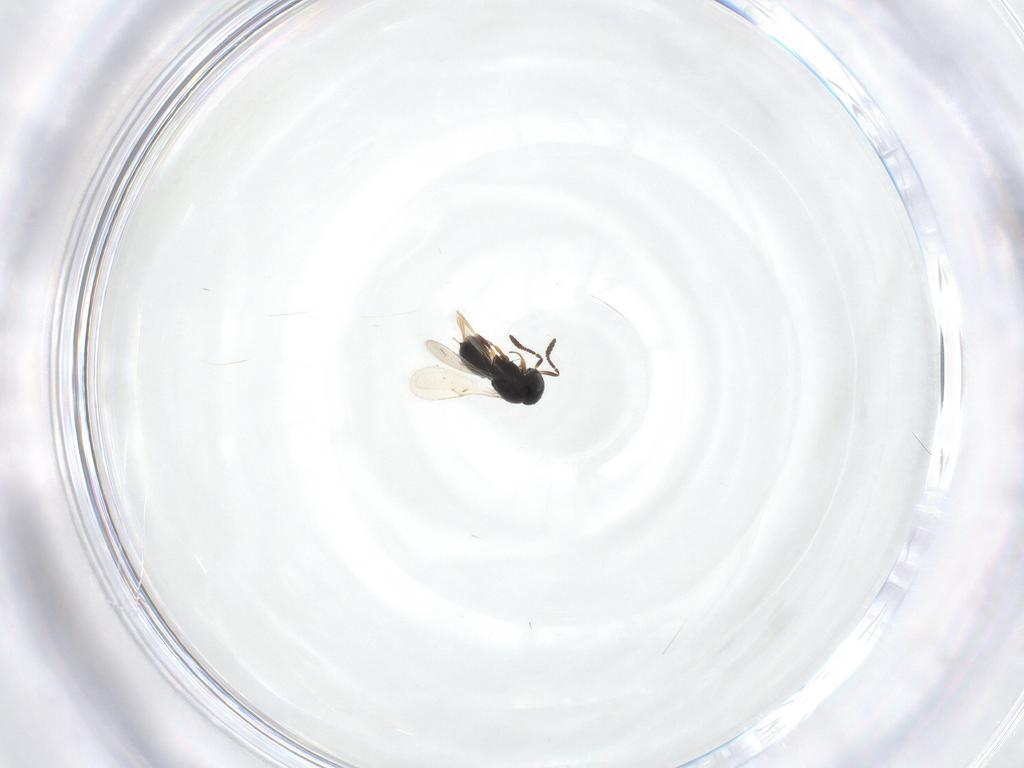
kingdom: Animalia
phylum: Arthropoda
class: Insecta
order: Hymenoptera
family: Scelionidae
